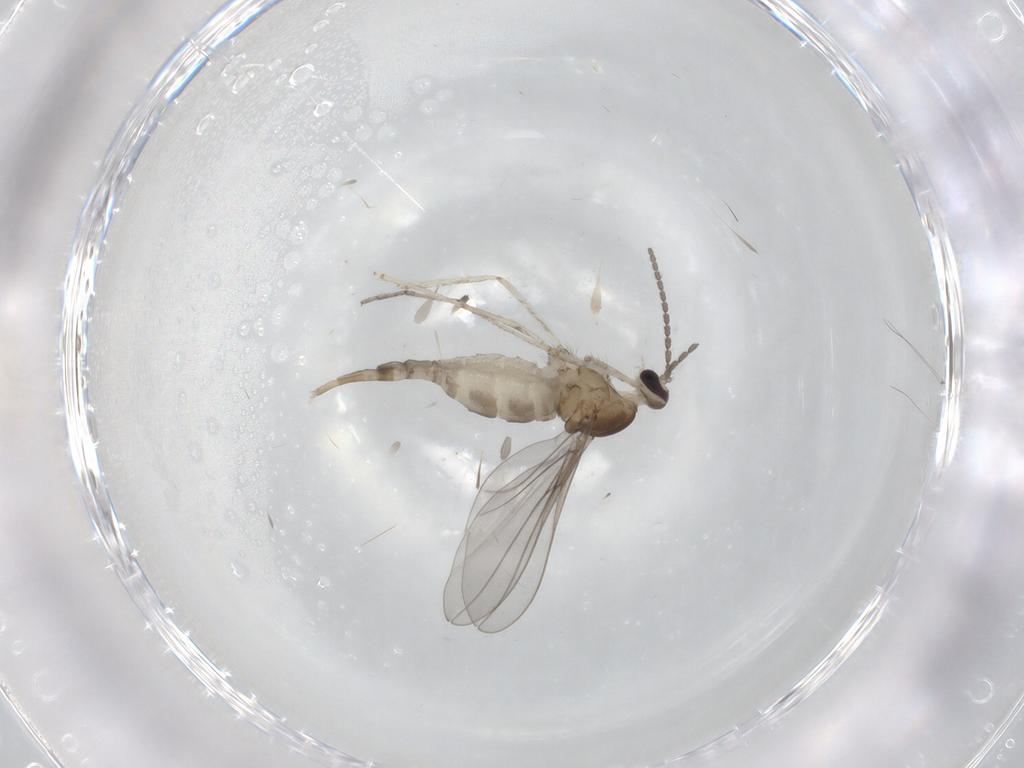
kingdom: Animalia
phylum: Arthropoda
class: Insecta
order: Diptera
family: Cecidomyiidae
